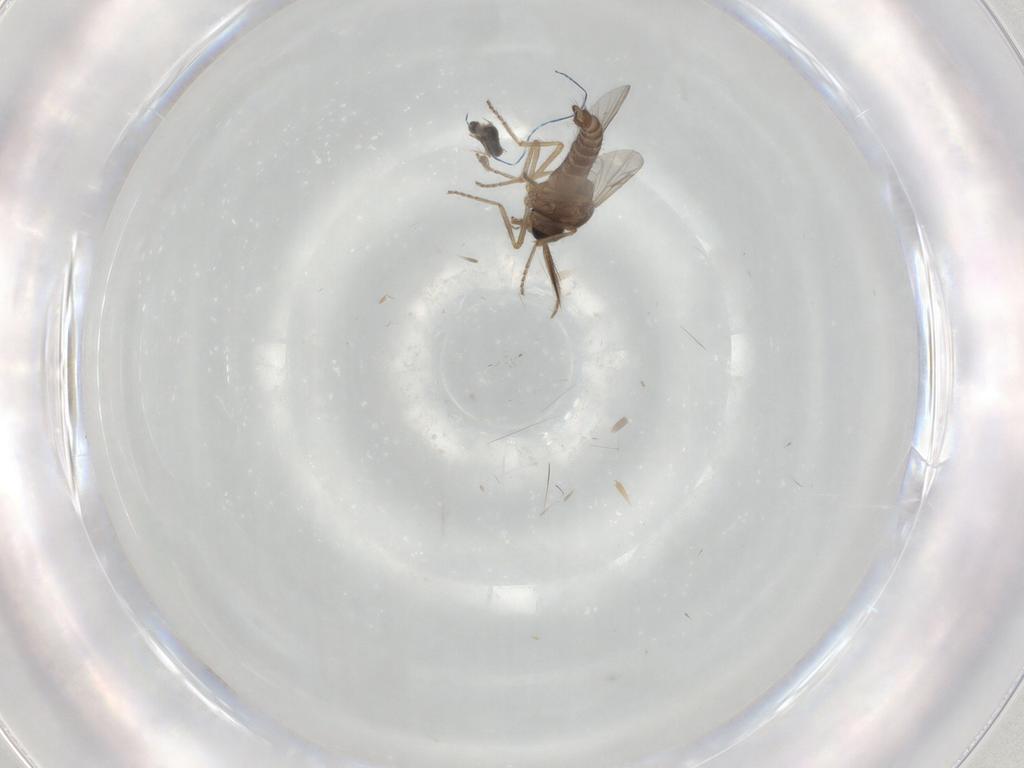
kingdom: Animalia
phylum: Arthropoda
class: Insecta
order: Diptera
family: Ceratopogonidae
